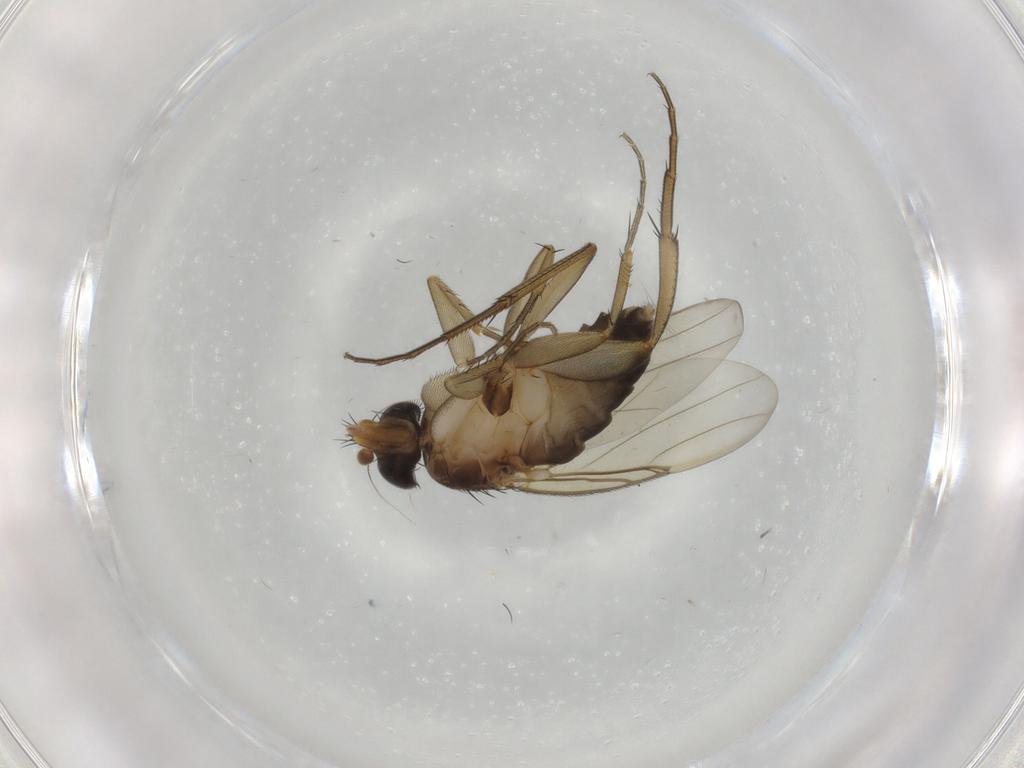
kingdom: Animalia
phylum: Arthropoda
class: Insecta
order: Diptera
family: Phoridae
